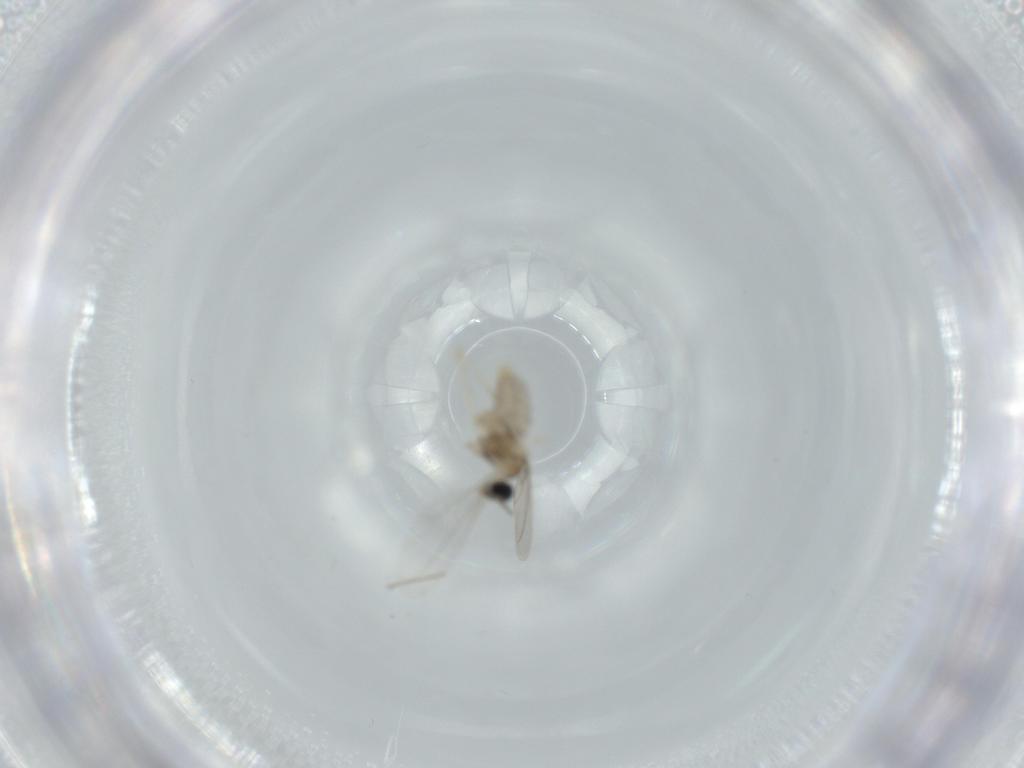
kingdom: Animalia
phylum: Arthropoda
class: Insecta
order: Diptera
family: Cecidomyiidae
